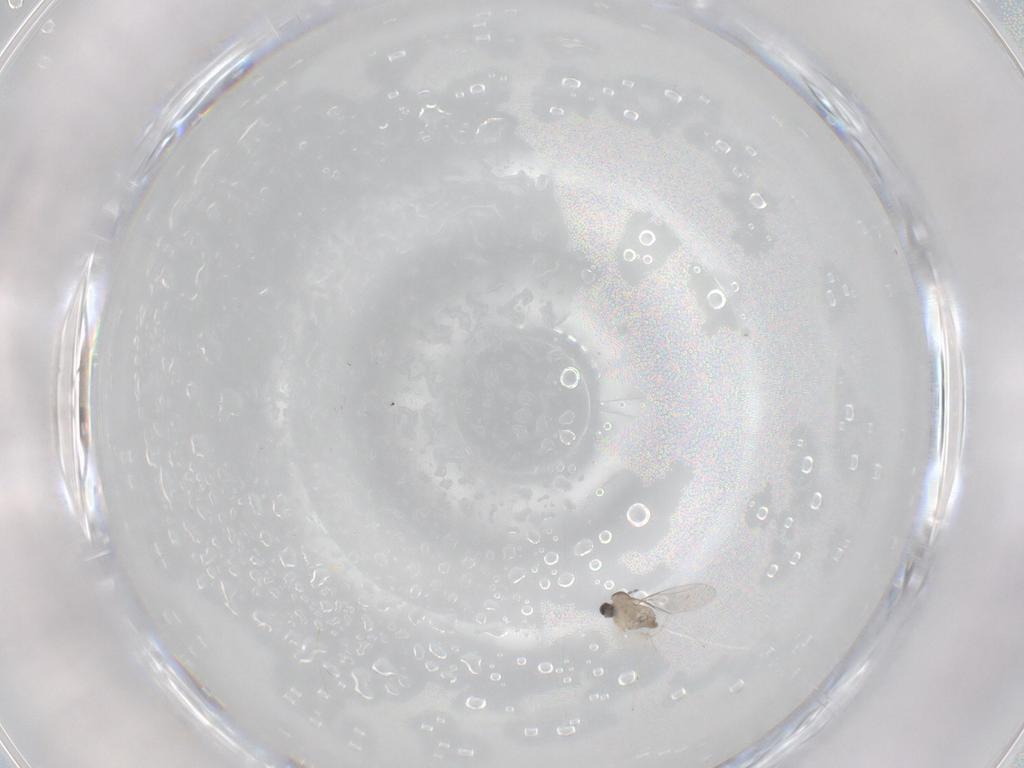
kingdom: Animalia
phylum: Arthropoda
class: Insecta
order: Diptera
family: Cecidomyiidae
